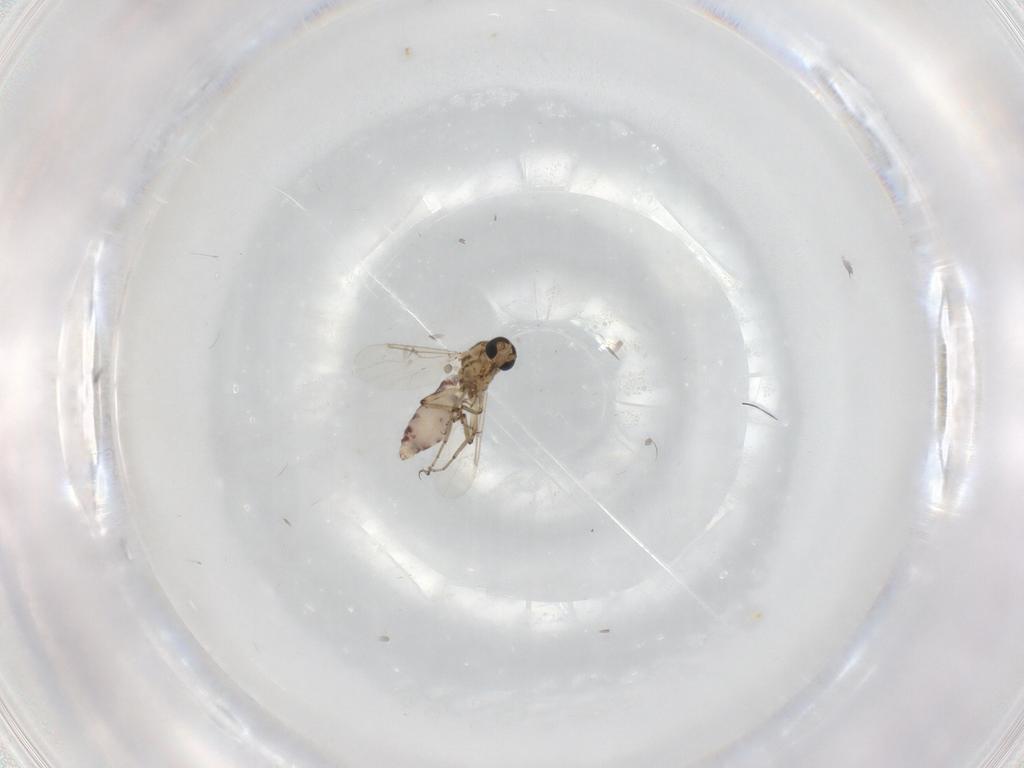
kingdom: Animalia
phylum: Arthropoda
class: Insecta
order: Diptera
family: Ceratopogonidae
